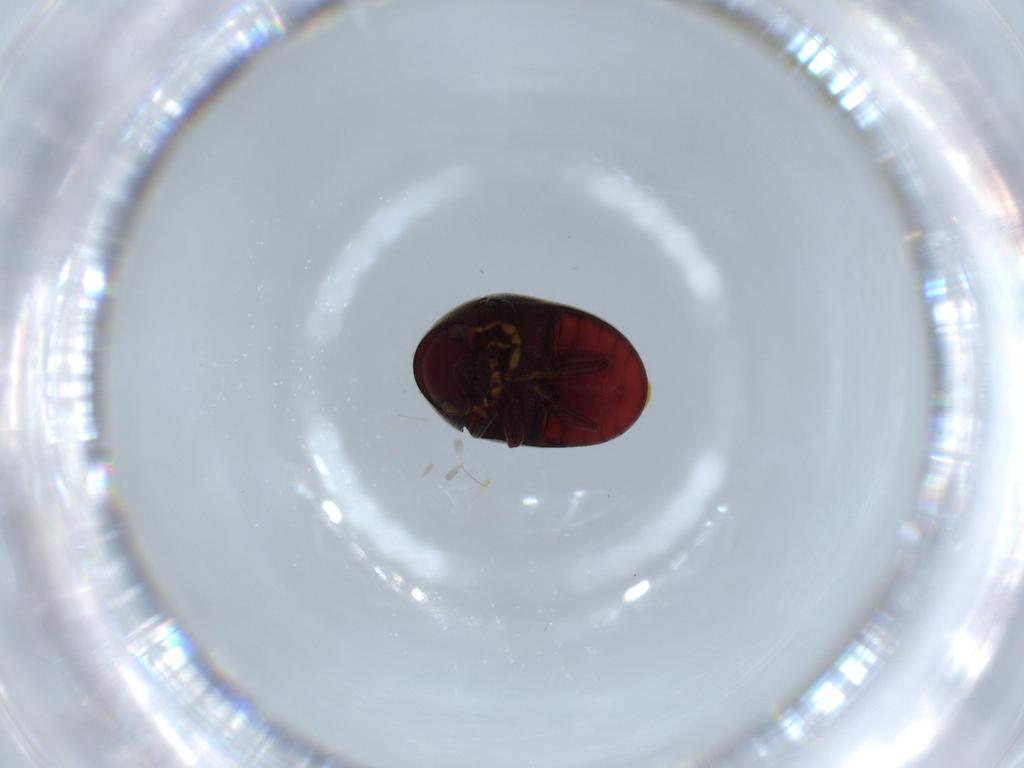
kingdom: Animalia
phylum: Arthropoda
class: Insecta
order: Coleoptera
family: Ptinidae
